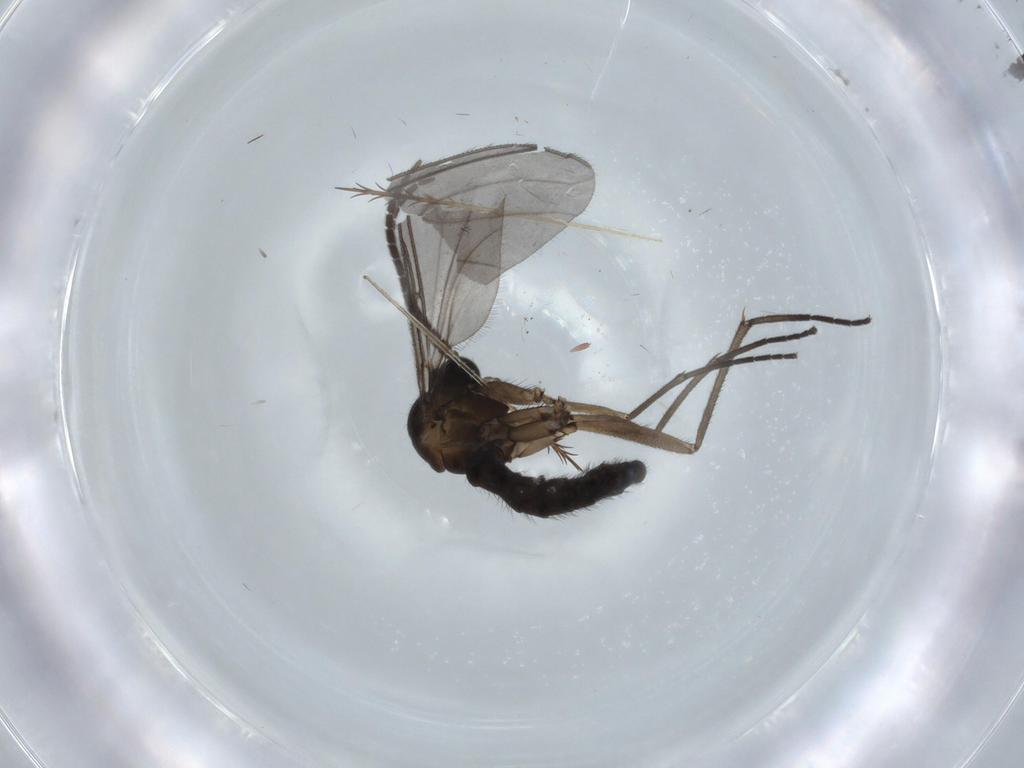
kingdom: Animalia
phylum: Arthropoda
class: Insecta
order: Diptera
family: Sciaridae
